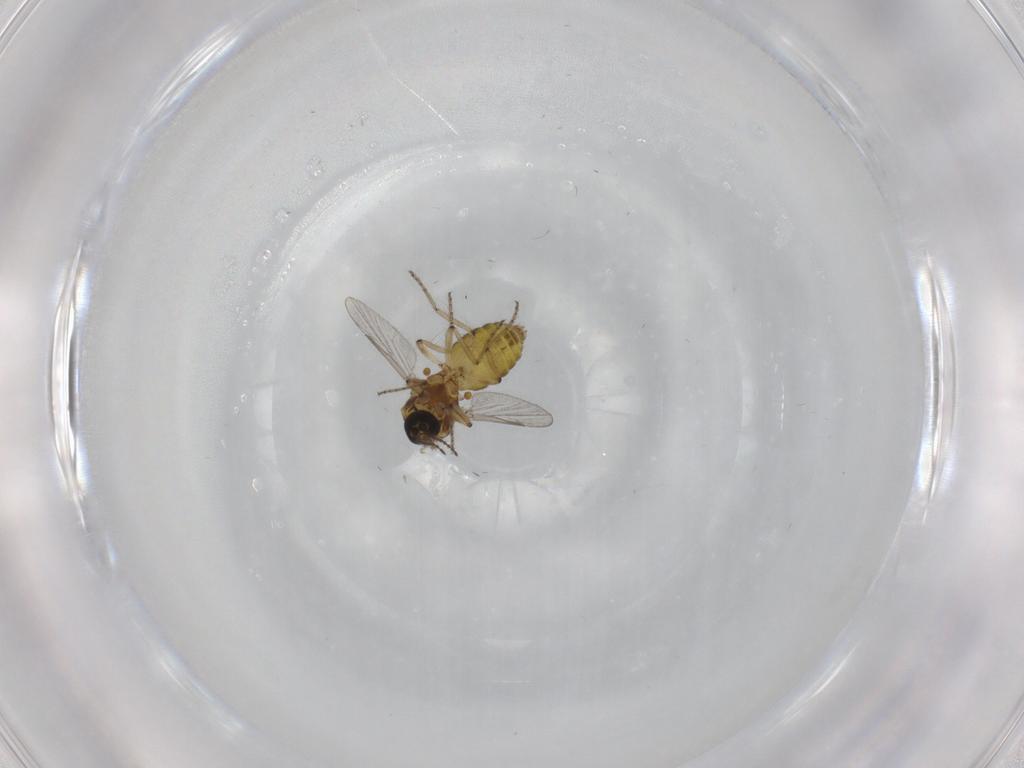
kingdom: Animalia
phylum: Arthropoda
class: Insecta
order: Diptera
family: Ceratopogonidae
